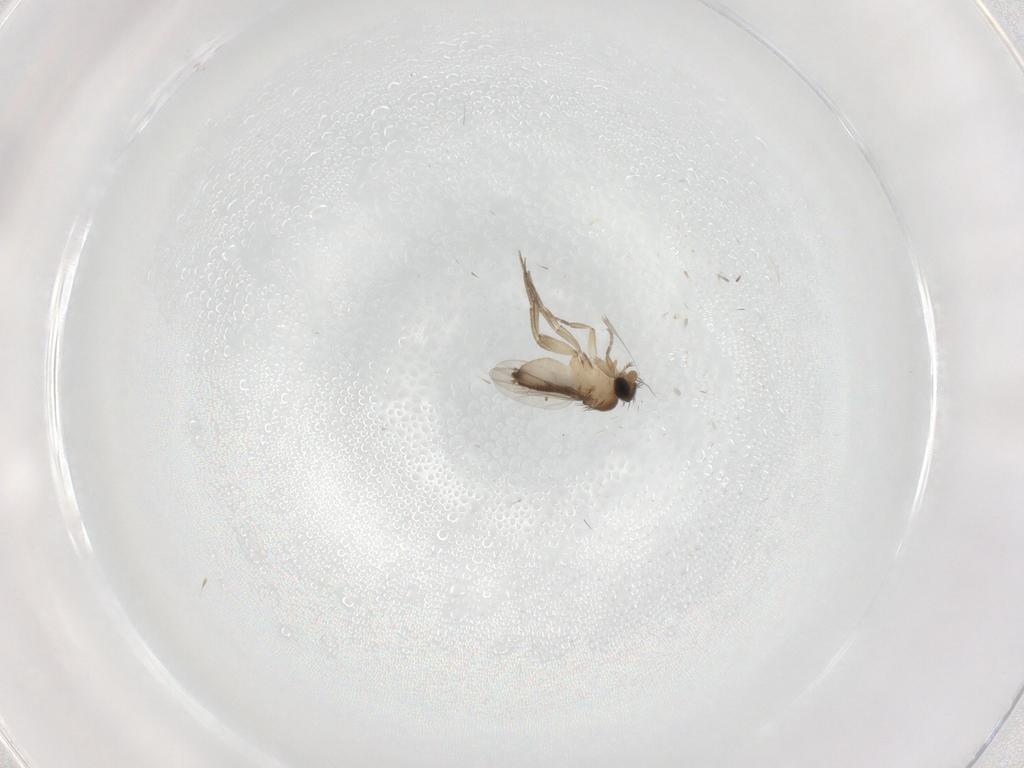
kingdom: Animalia
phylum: Arthropoda
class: Insecta
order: Diptera
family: Phoridae
